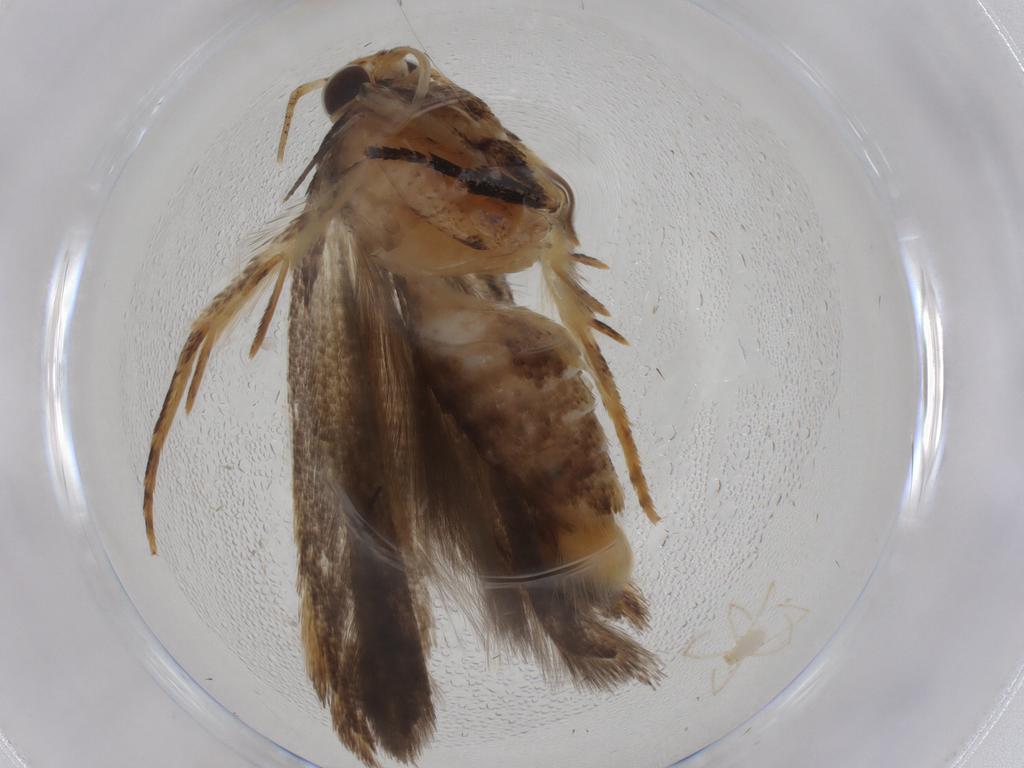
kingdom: Animalia
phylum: Arthropoda
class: Insecta
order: Lepidoptera
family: Gelechiidae
